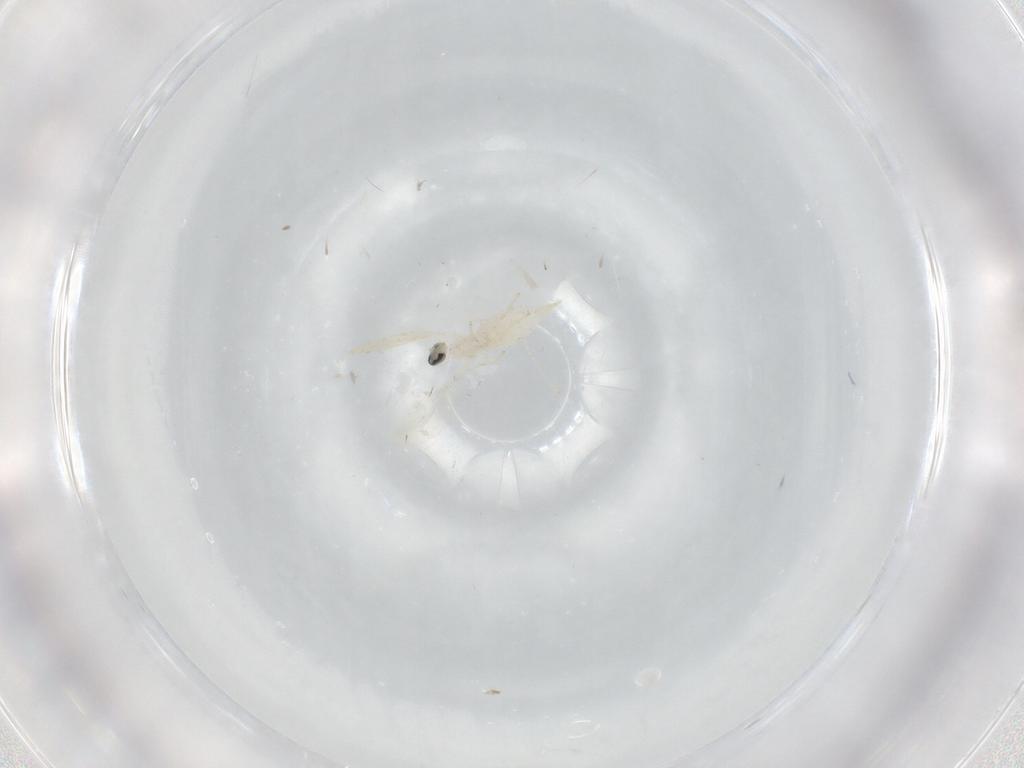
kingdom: Animalia
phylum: Arthropoda
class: Insecta
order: Diptera
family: Cecidomyiidae
